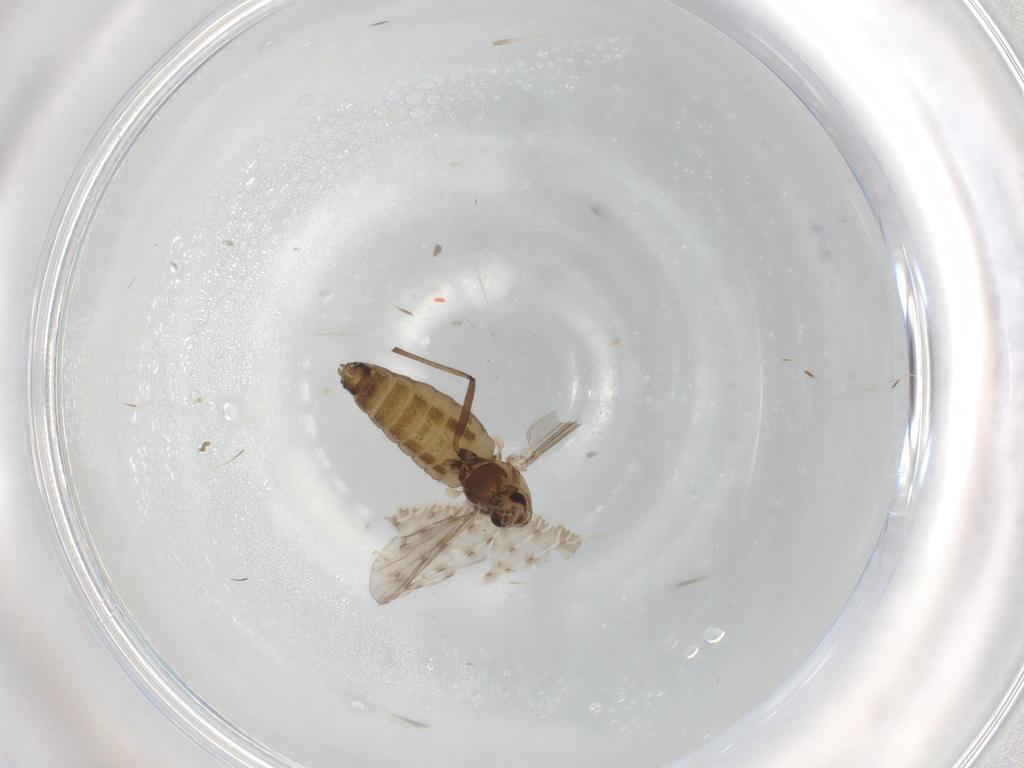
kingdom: Animalia
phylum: Arthropoda
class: Insecta
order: Diptera
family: Chironomidae
